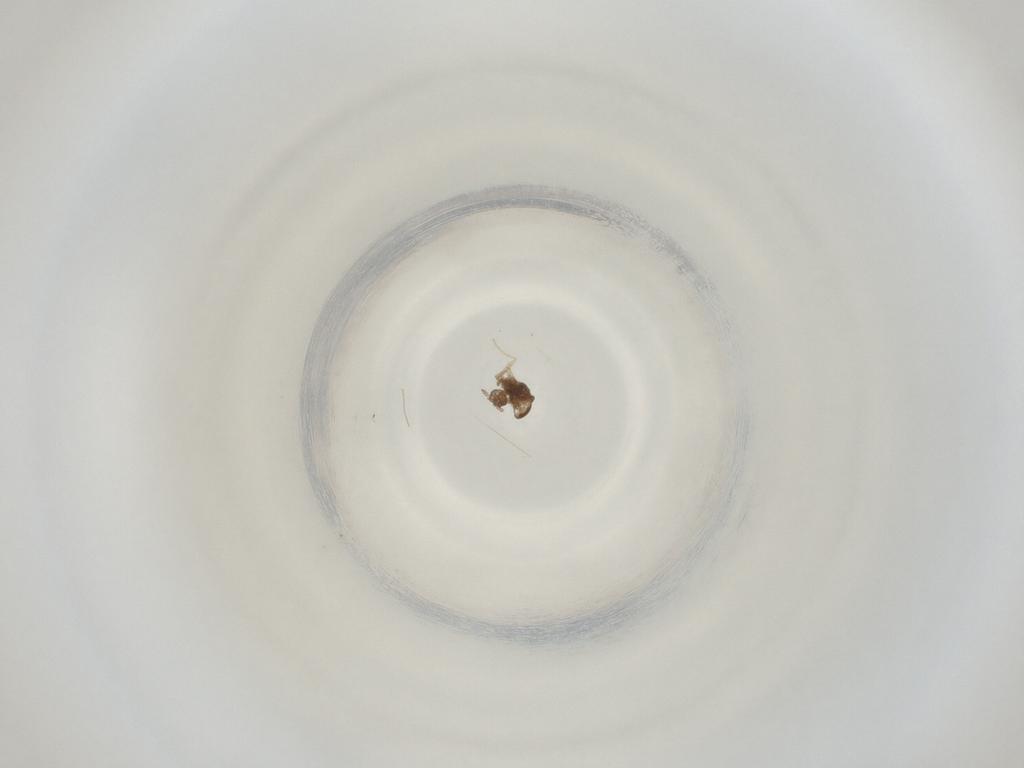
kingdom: Animalia
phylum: Arthropoda
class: Insecta
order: Diptera
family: Cecidomyiidae
